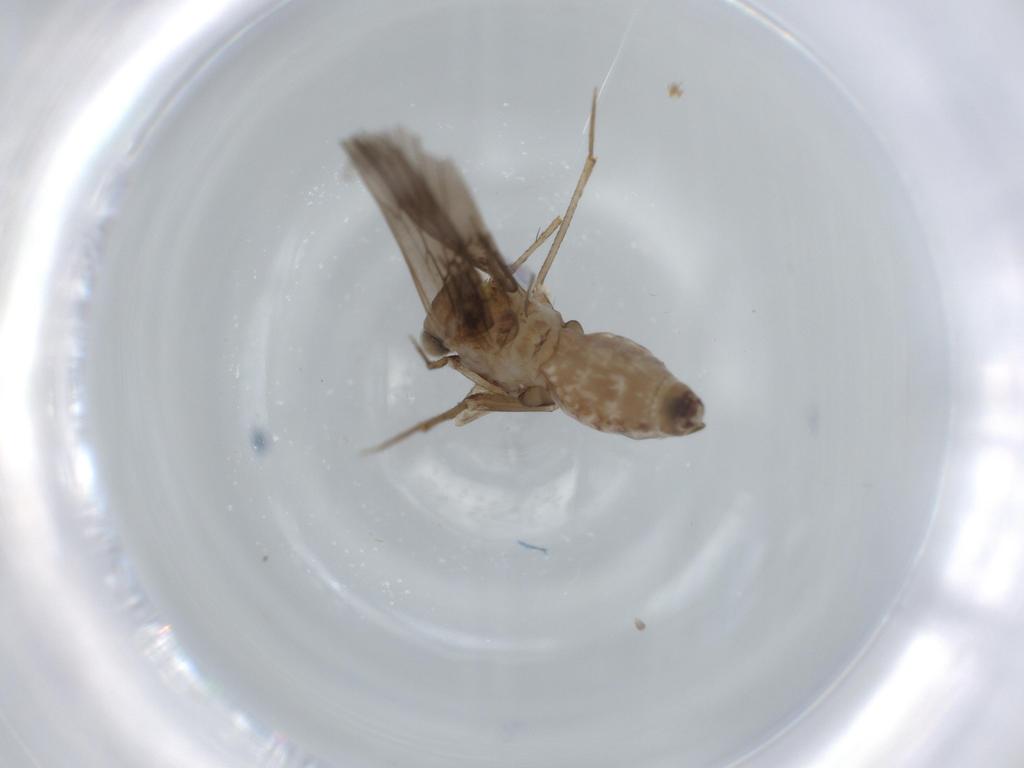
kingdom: Animalia
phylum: Arthropoda
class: Insecta
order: Psocodea
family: Lepidopsocidae
